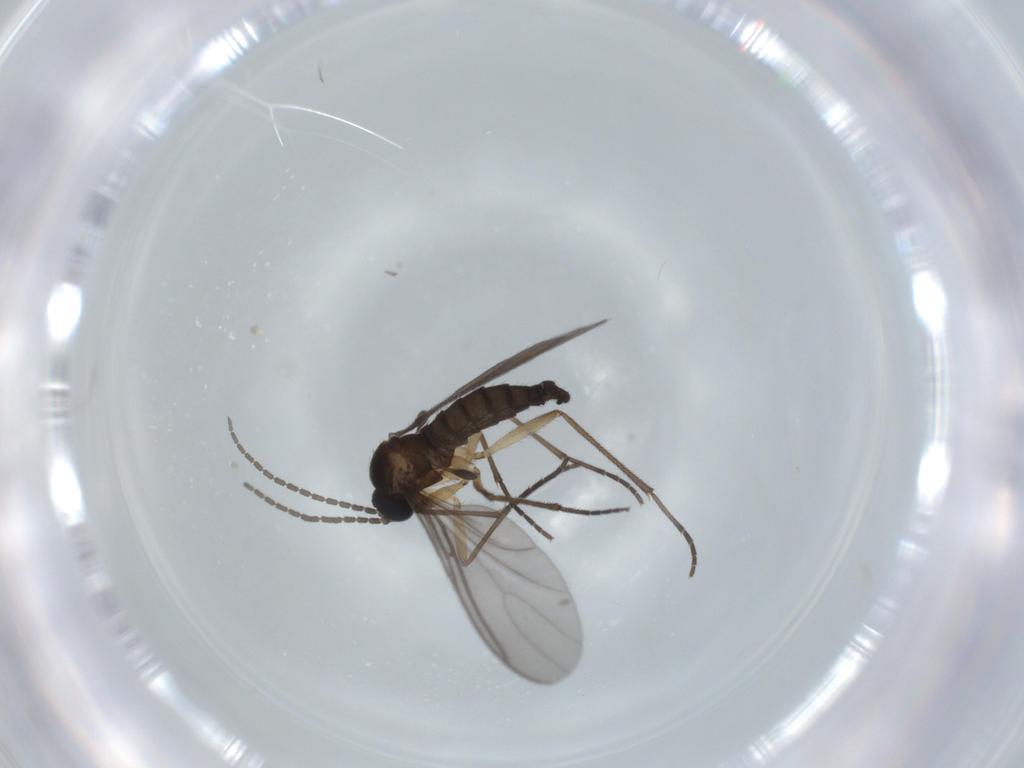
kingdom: Animalia
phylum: Arthropoda
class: Insecta
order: Diptera
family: Sciaridae
